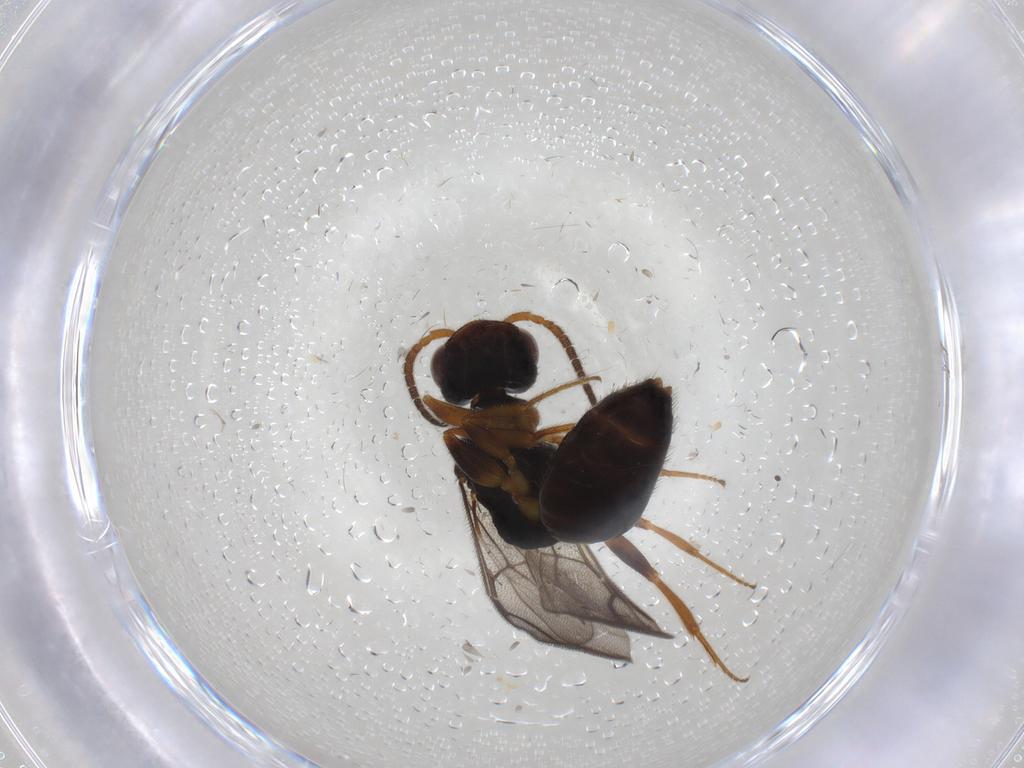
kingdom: Animalia
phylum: Arthropoda
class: Insecta
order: Hymenoptera
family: Bethylidae
